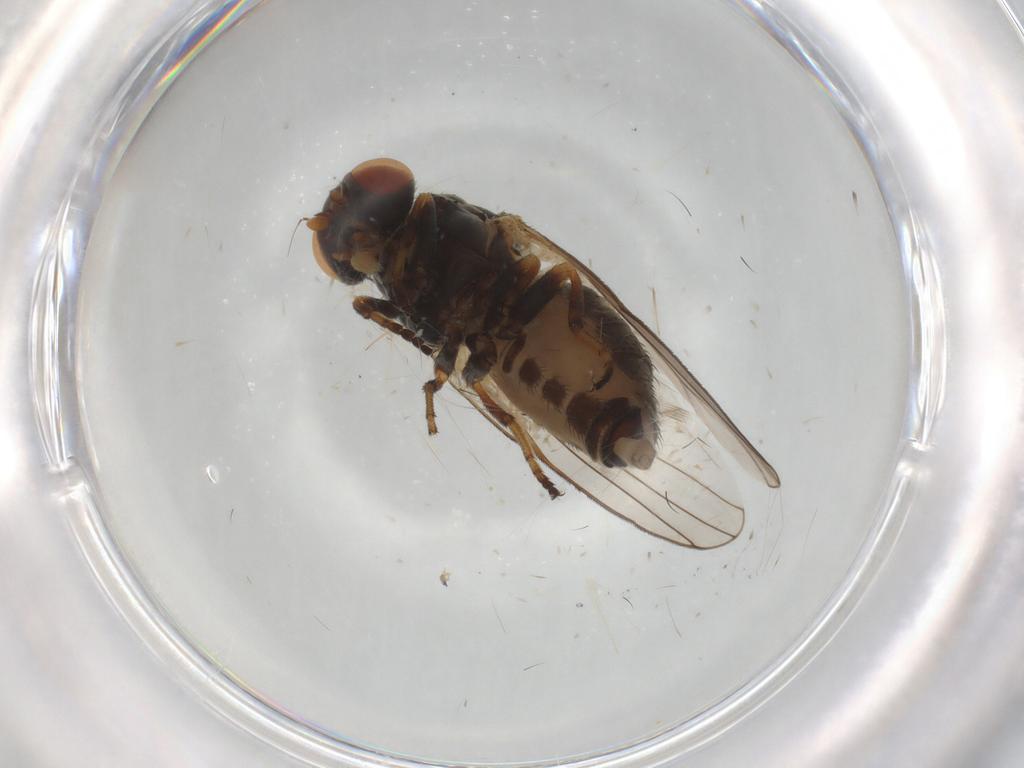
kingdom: Animalia
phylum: Arthropoda
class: Insecta
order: Diptera
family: Chamaemyiidae
